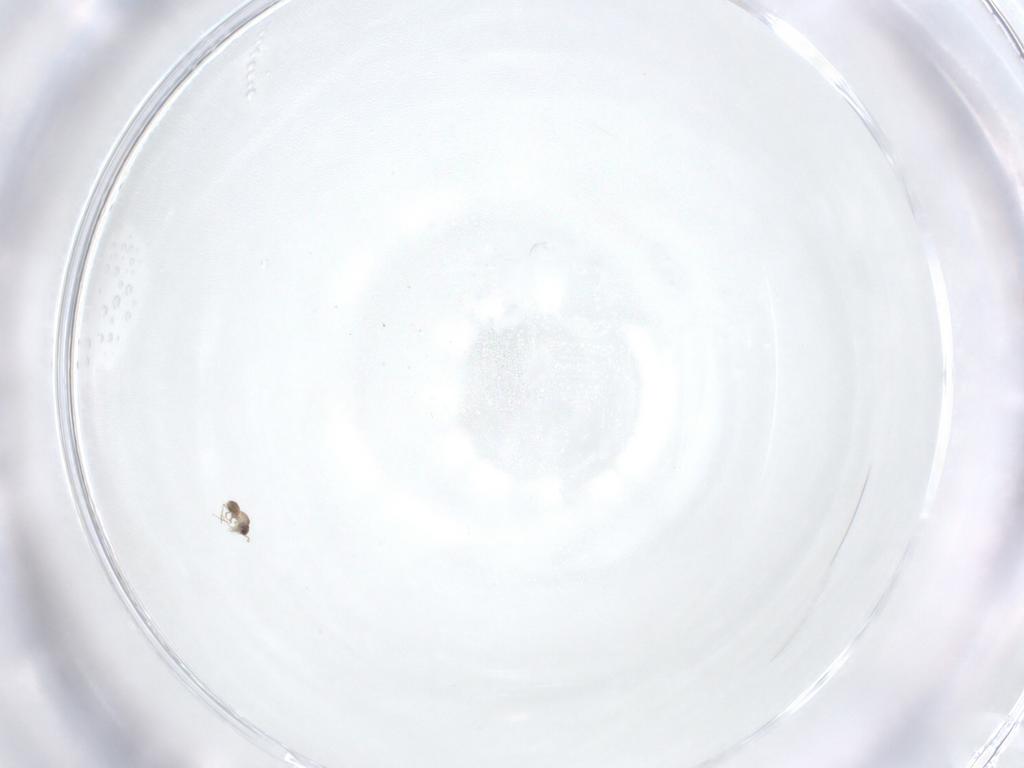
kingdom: Animalia
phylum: Arthropoda
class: Insecta
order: Hymenoptera
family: Mymaridae
